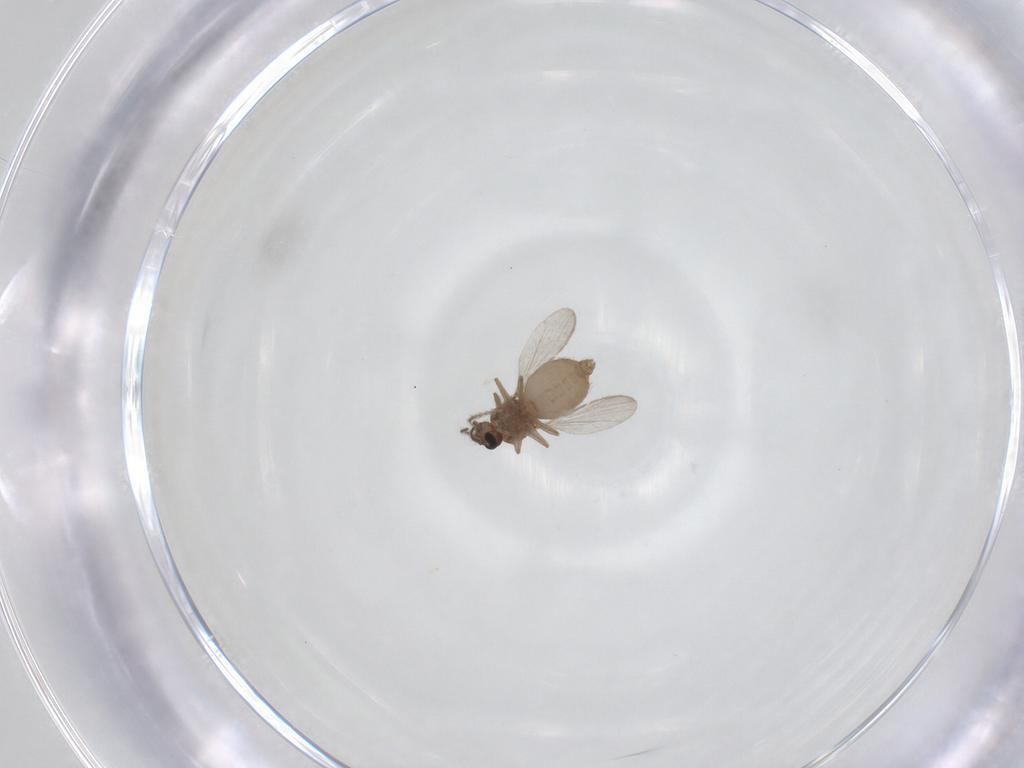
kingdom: Animalia
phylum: Arthropoda
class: Insecta
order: Diptera
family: Ceratopogonidae
